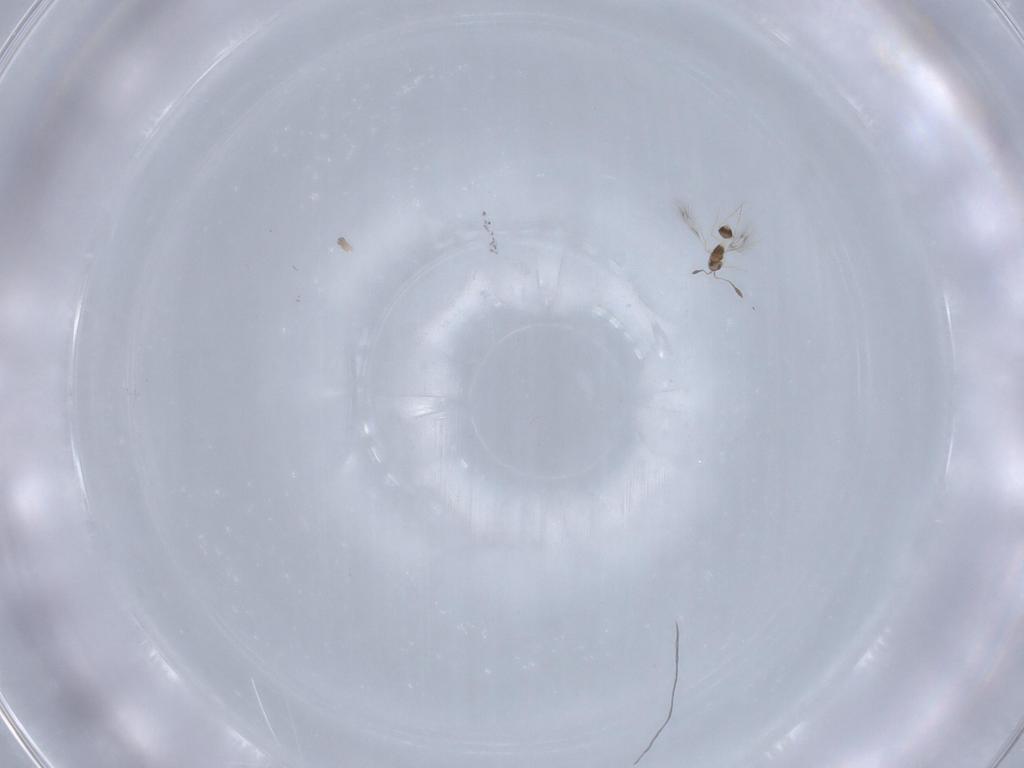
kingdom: Animalia
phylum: Arthropoda
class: Insecta
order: Hymenoptera
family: Mymarommatidae
